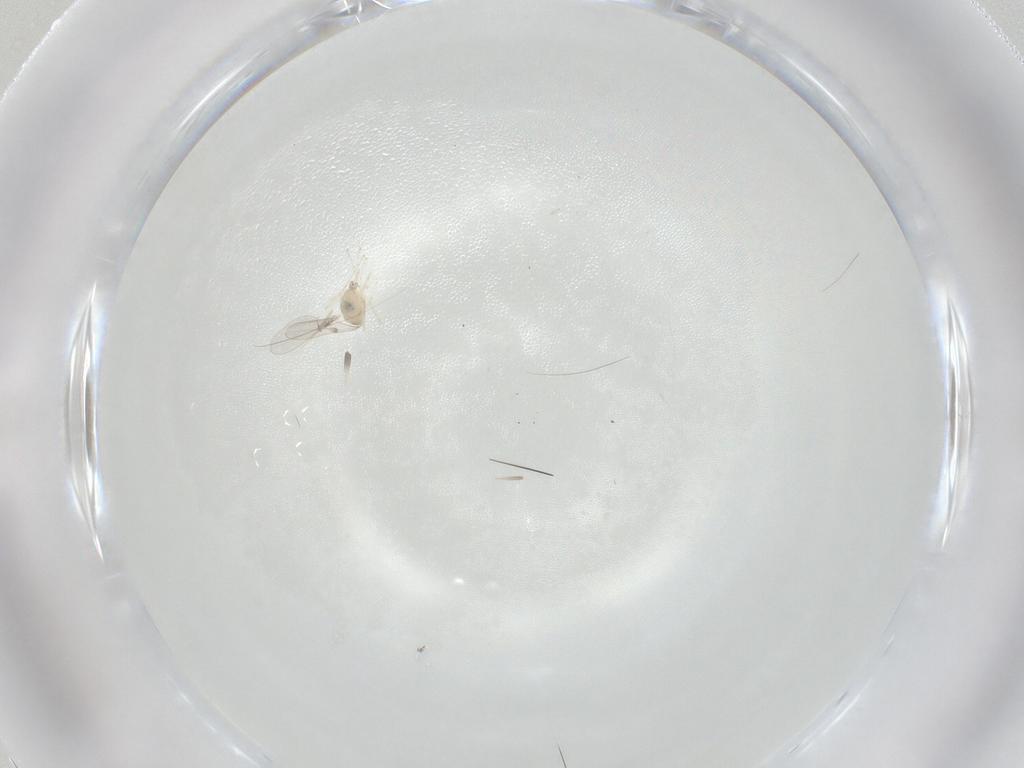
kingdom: Animalia
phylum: Arthropoda
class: Insecta
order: Diptera
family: Cecidomyiidae
